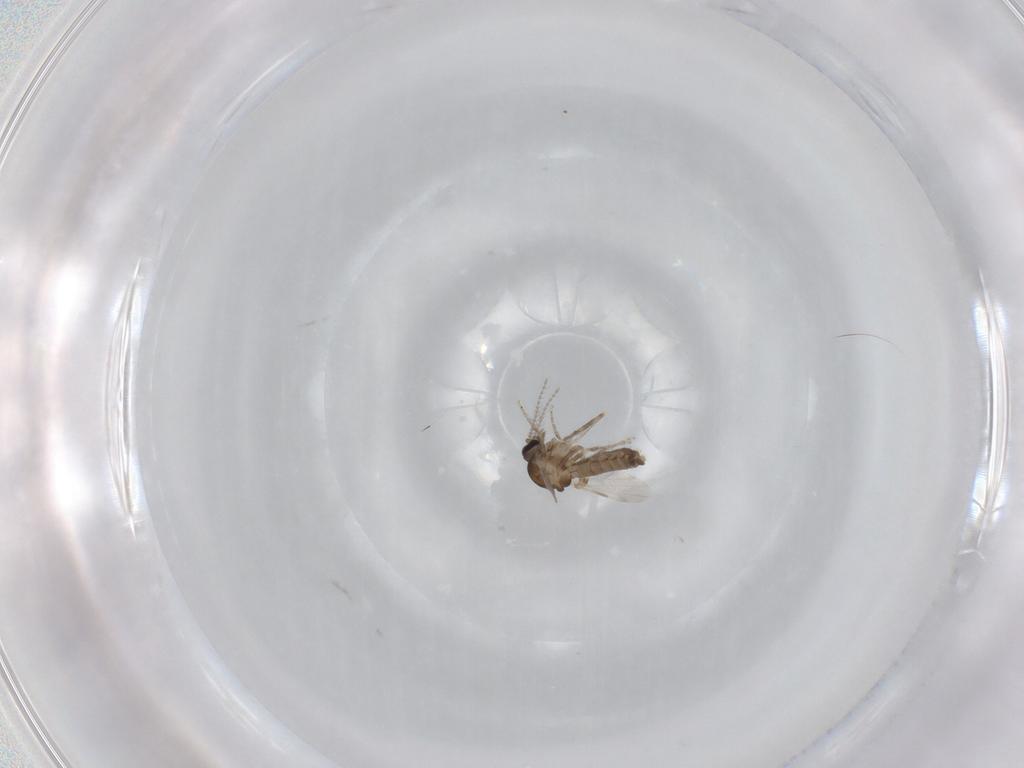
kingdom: Animalia
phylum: Arthropoda
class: Insecta
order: Diptera
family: Ceratopogonidae
